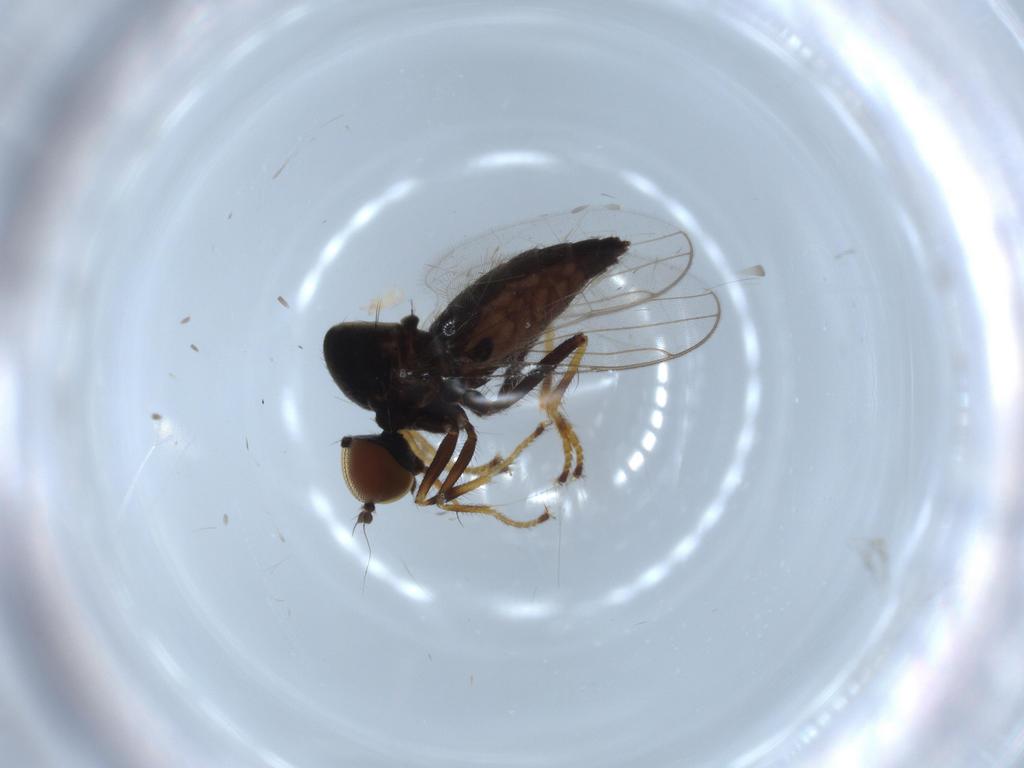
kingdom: Animalia
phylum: Arthropoda
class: Insecta
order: Diptera
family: Hybotidae
